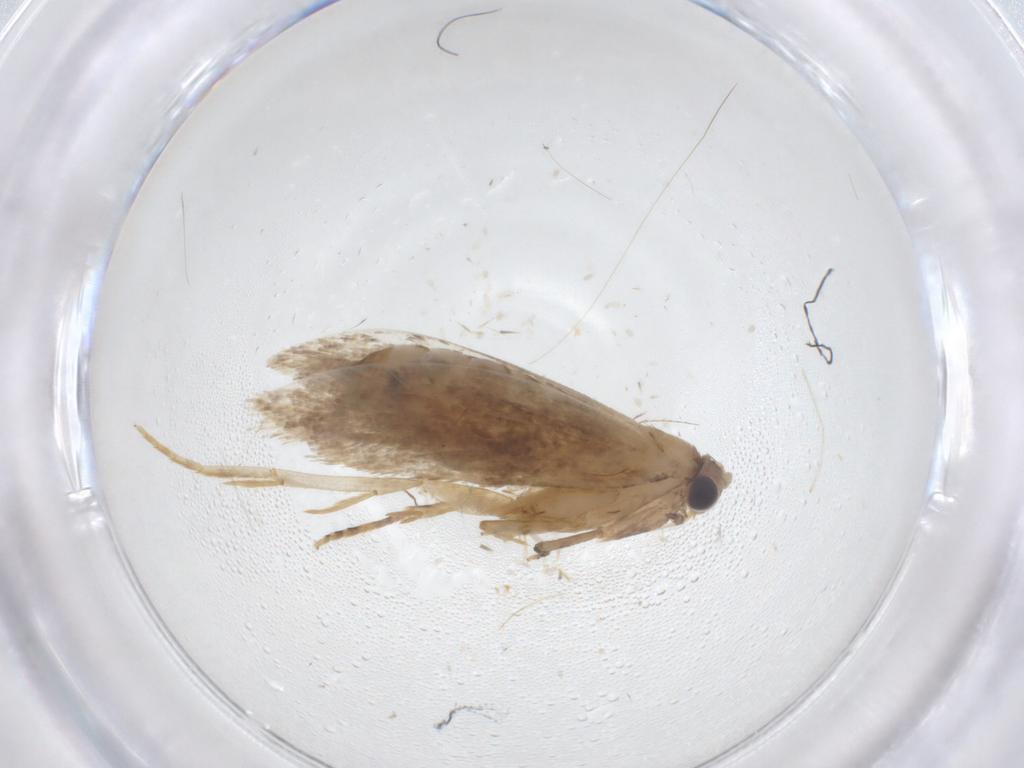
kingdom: Animalia
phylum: Arthropoda
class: Insecta
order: Lepidoptera
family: Tineidae
